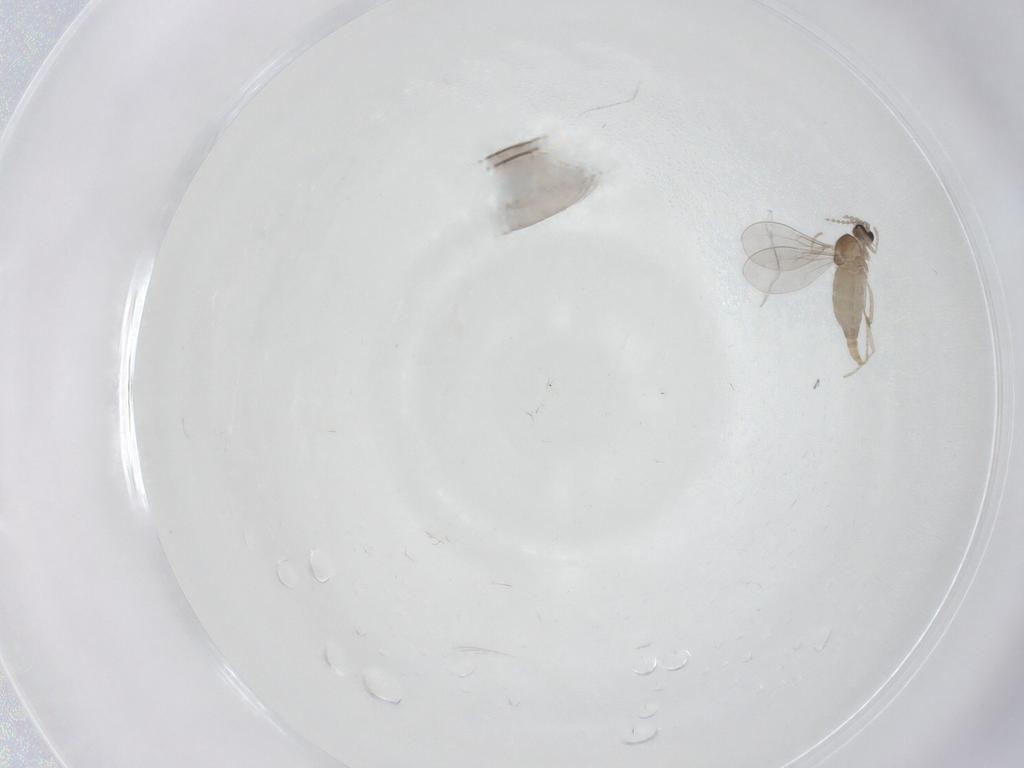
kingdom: Animalia
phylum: Arthropoda
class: Insecta
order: Diptera
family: Sciaridae
